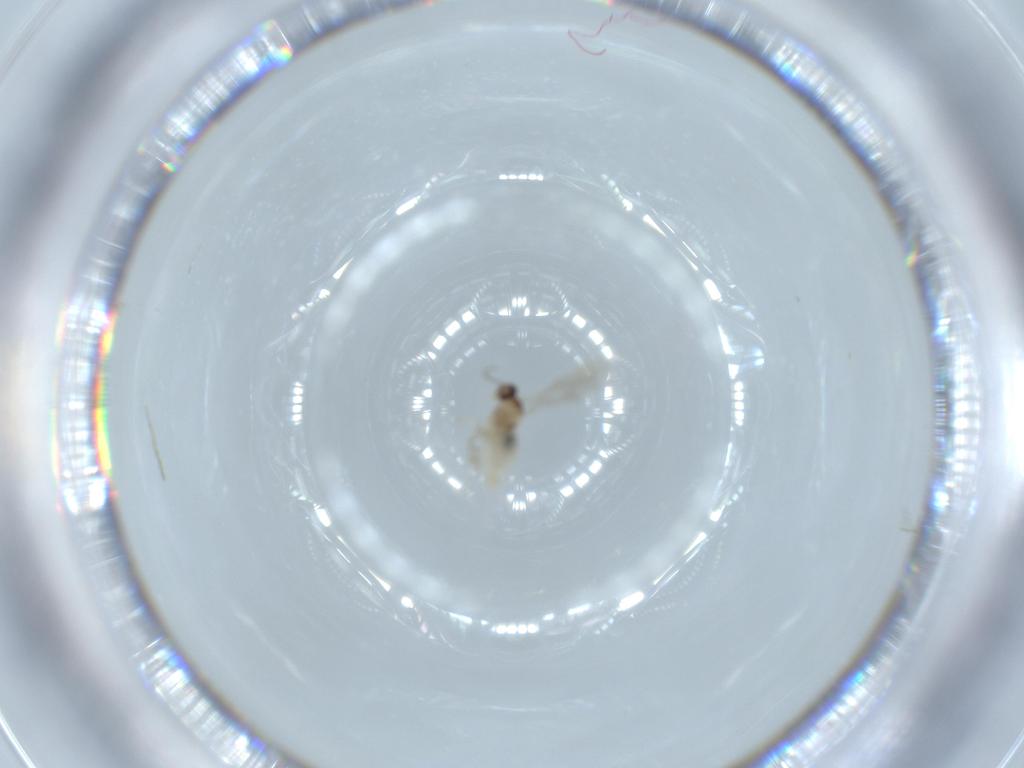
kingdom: Animalia
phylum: Arthropoda
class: Insecta
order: Diptera
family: Cecidomyiidae
